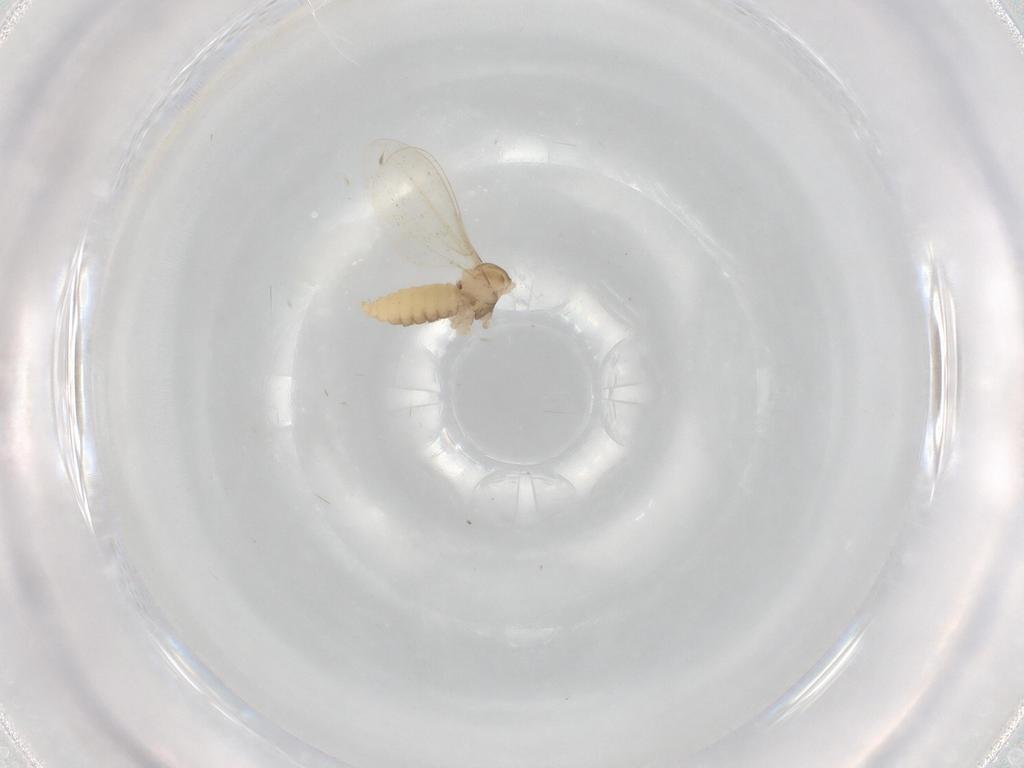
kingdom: Animalia
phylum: Arthropoda
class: Insecta
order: Diptera
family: Cecidomyiidae
